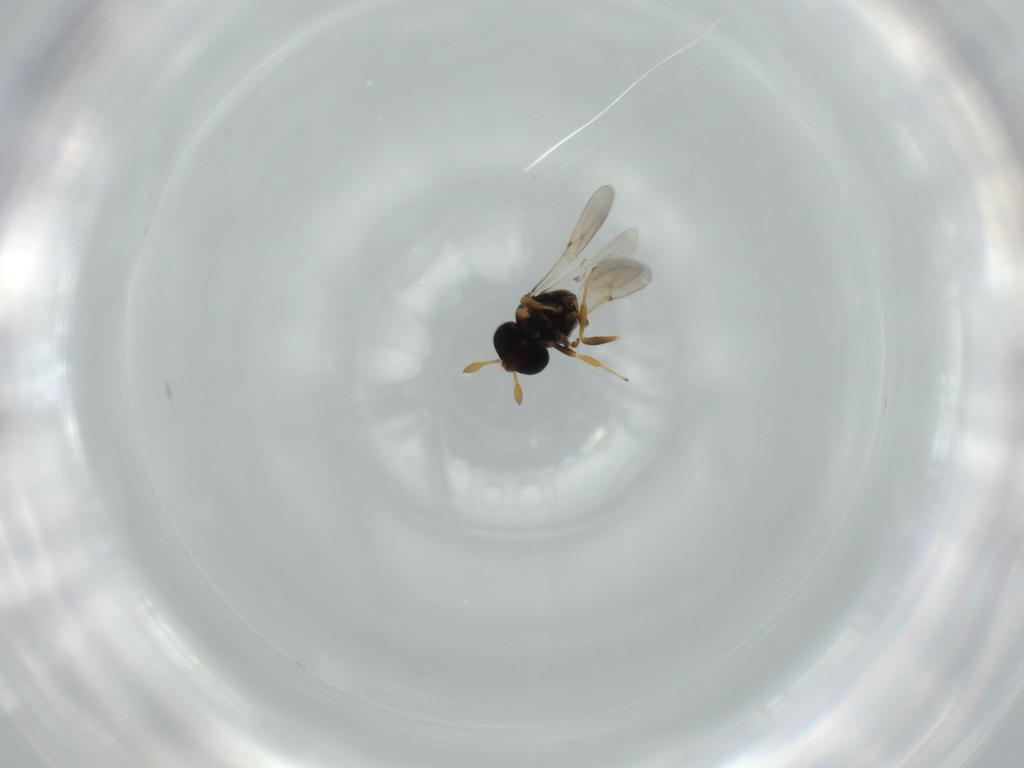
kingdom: Animalia
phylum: Arthropoda
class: Insecta
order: Hymenoptera
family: Scelionidae
